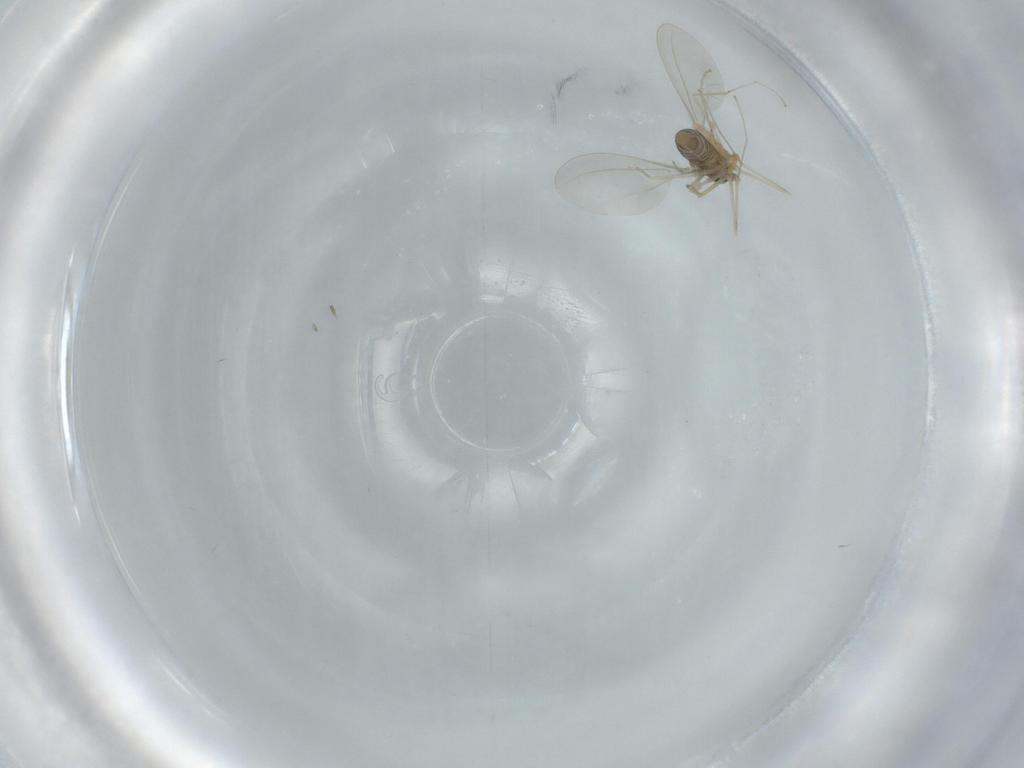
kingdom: Animalia
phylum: Arthropoda
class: Insecta
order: Diptera
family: Cecidomyiidae
